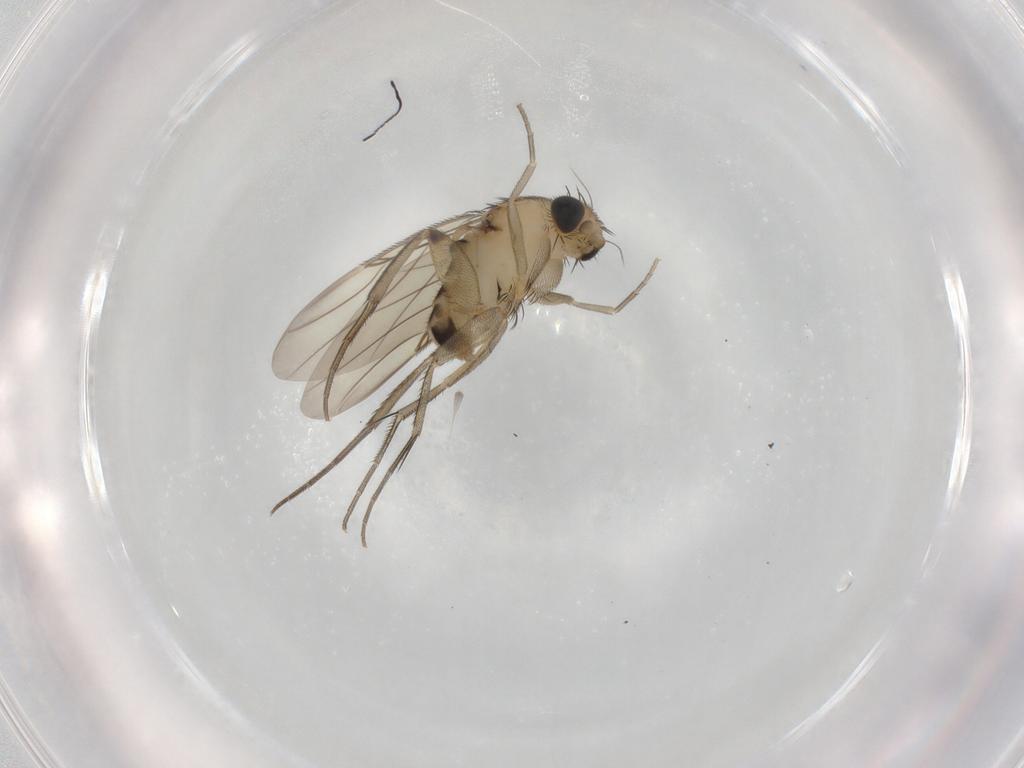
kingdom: Animalia
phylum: Arthropoda
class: Insecta
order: Diptera
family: Phoridae
